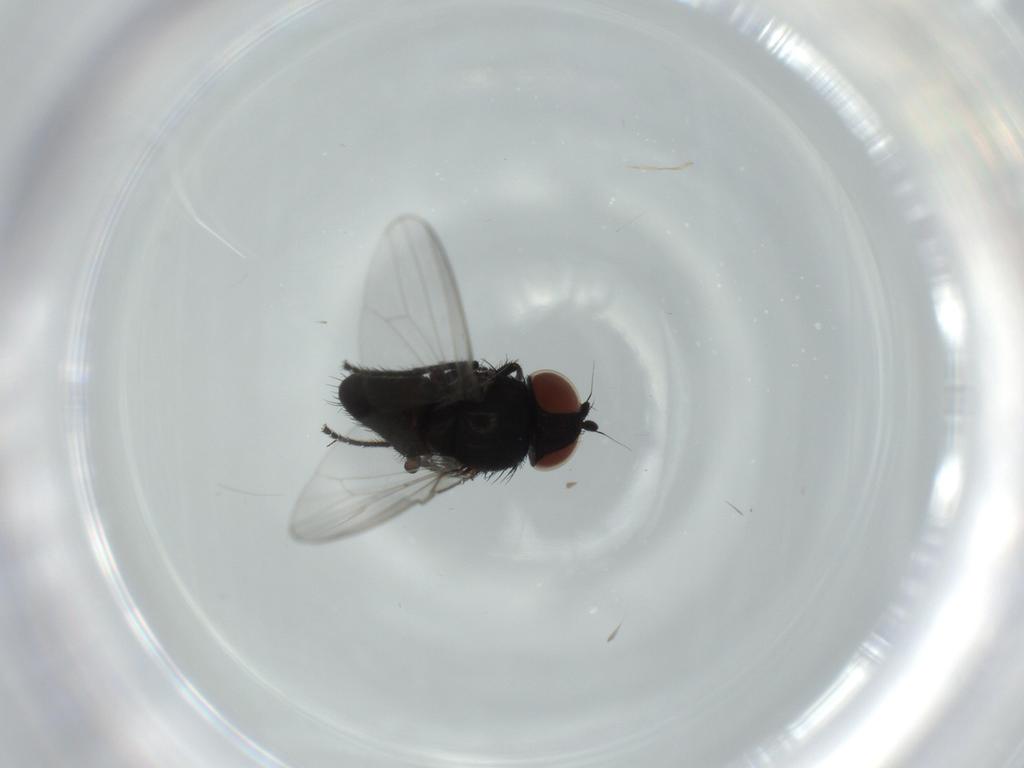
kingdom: Animalia
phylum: Arthropoda
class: Insecta
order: Diptera
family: Milichiidae
